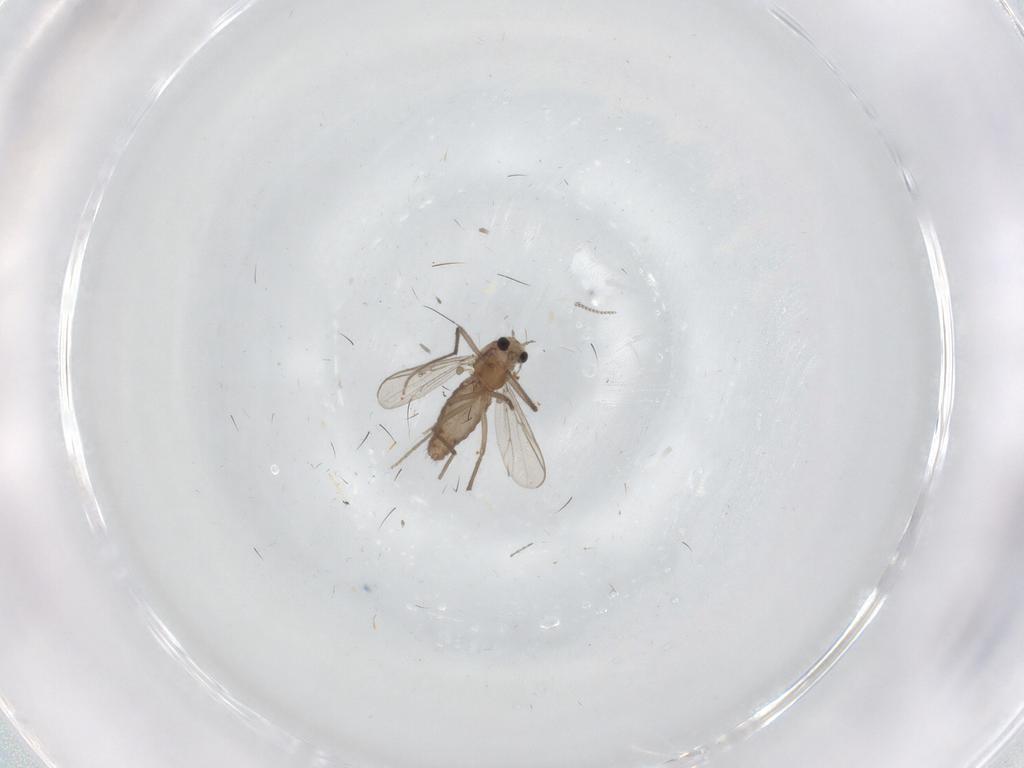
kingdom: Animalia
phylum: Arthropoda
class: Insecta
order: Diptera
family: Chironomidae
